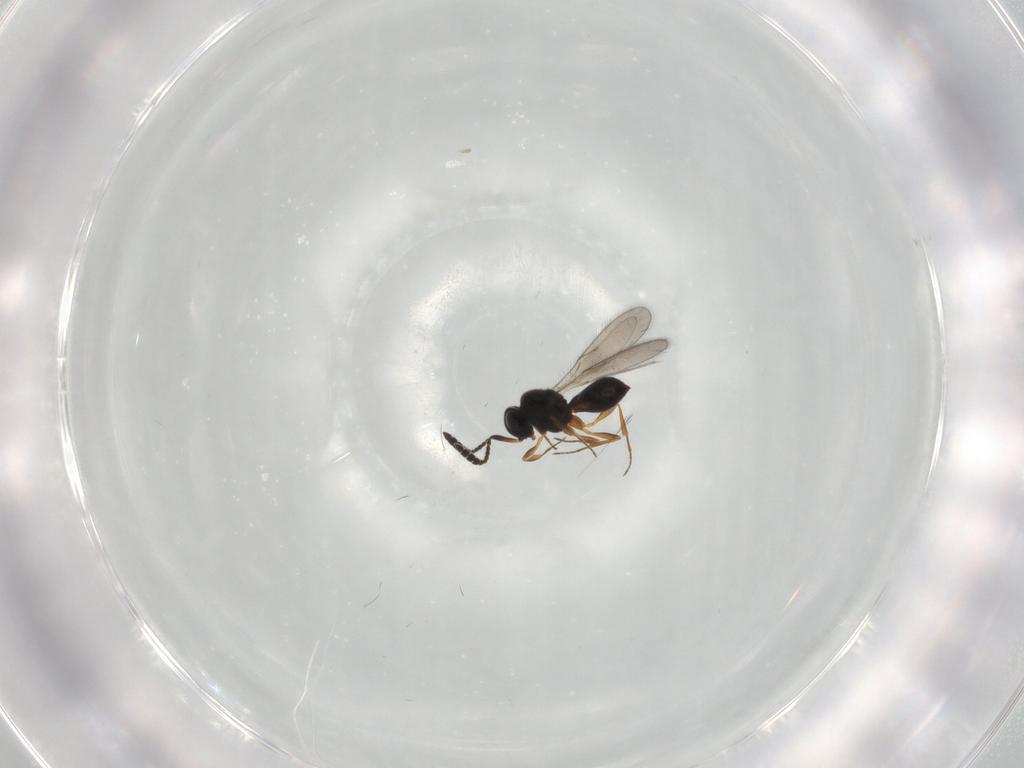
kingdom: Animalia
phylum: Arthropoda
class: Insecta
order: Hymenoptera
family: Scelionidae
